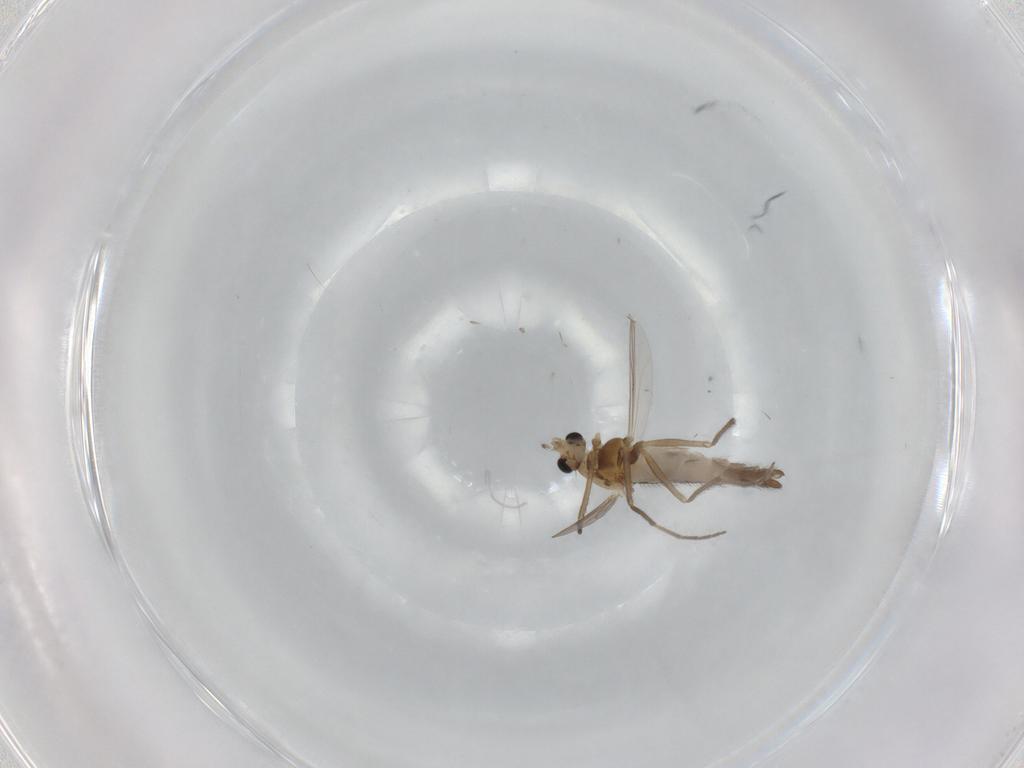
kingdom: Animalia
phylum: Arthropoda
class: Insecta
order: Diptera
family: Chironomidae
